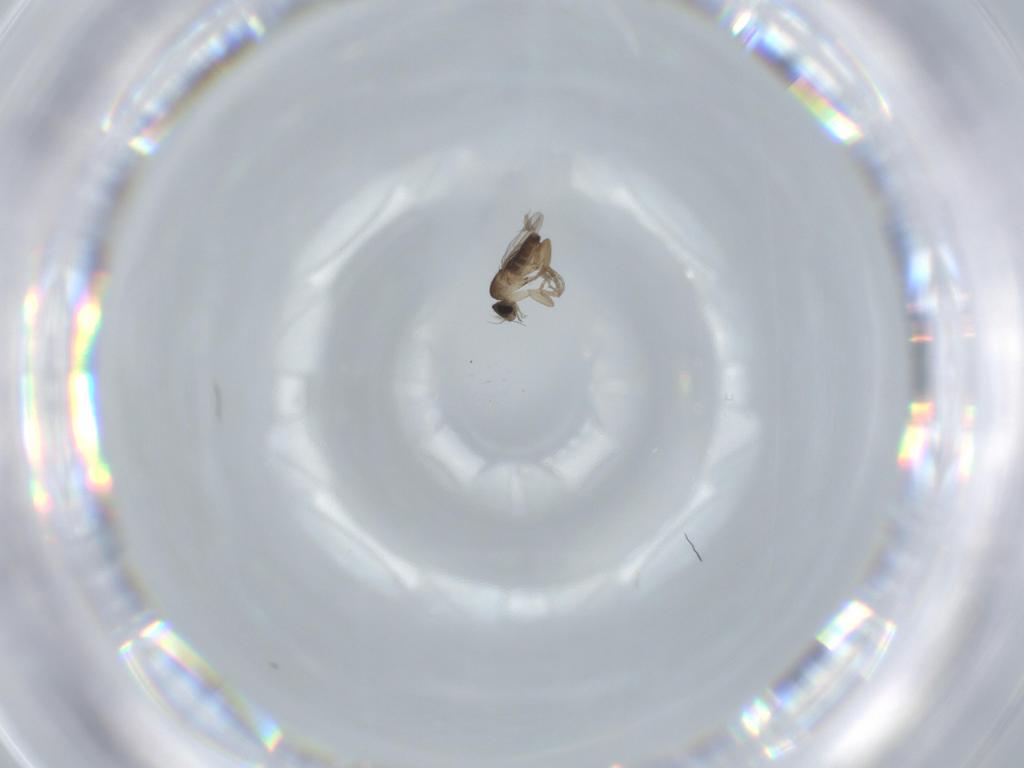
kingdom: Animalia
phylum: Arthropoda
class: Insecta
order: Diptera
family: Phoridae
